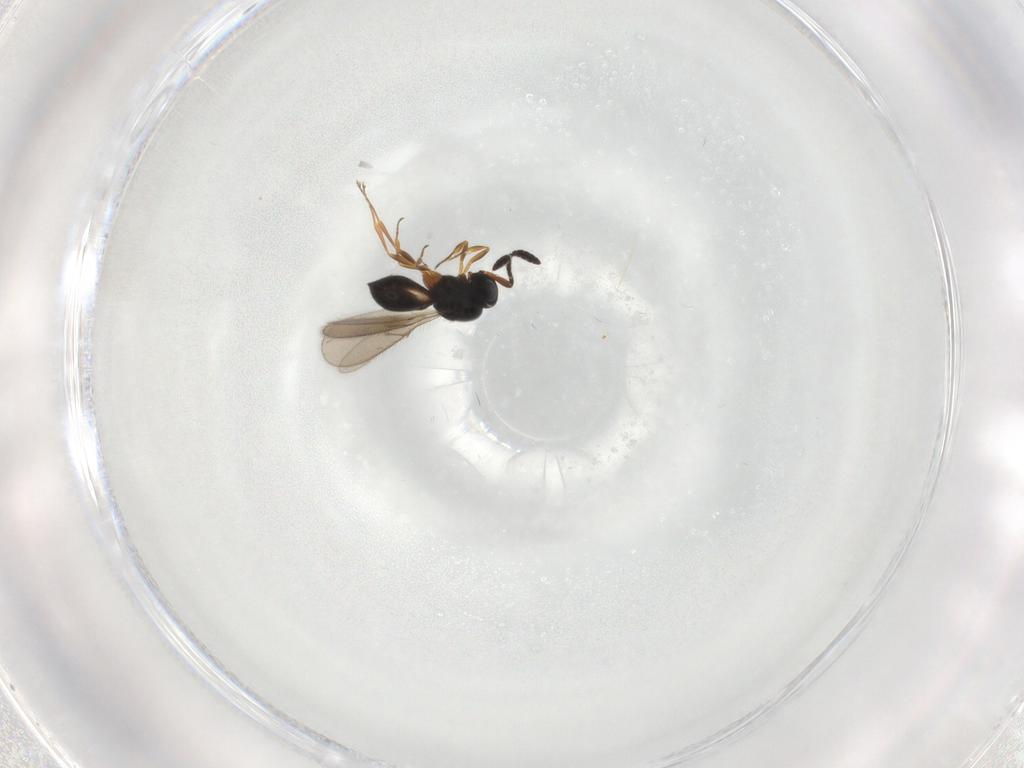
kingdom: Animalia
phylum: Arthropoda
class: Insecta
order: Hymenoptera
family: Scelionidae
